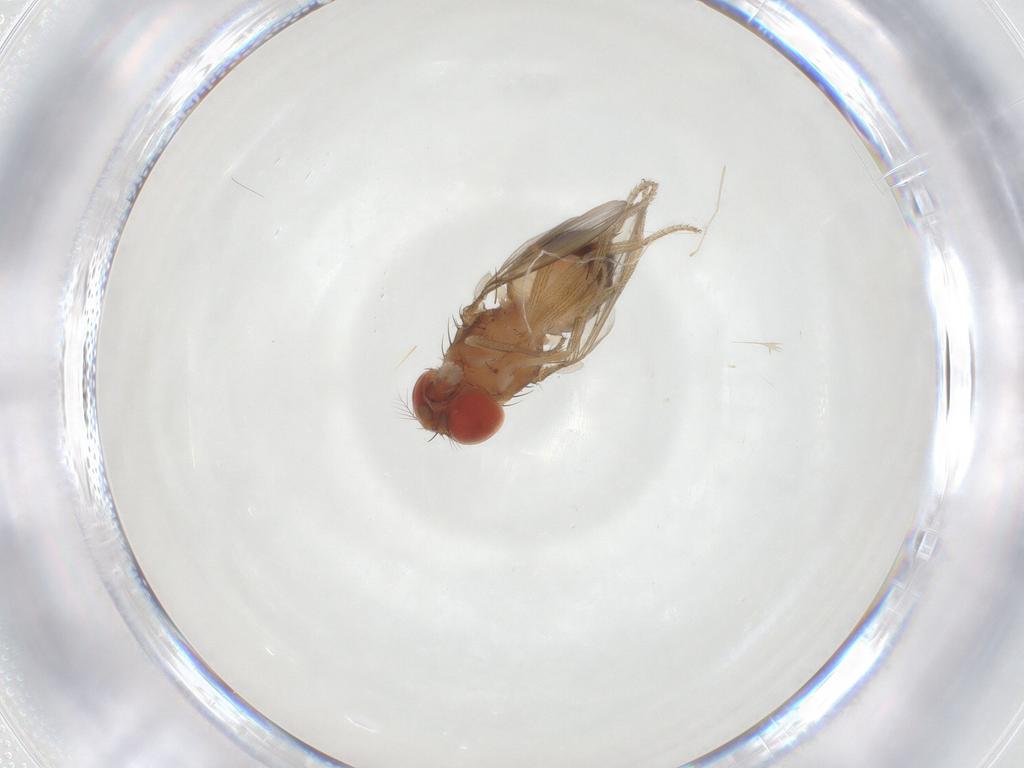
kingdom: Animalia
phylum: Arthropoda
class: Insecta
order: Diptera
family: Drosophilidae
